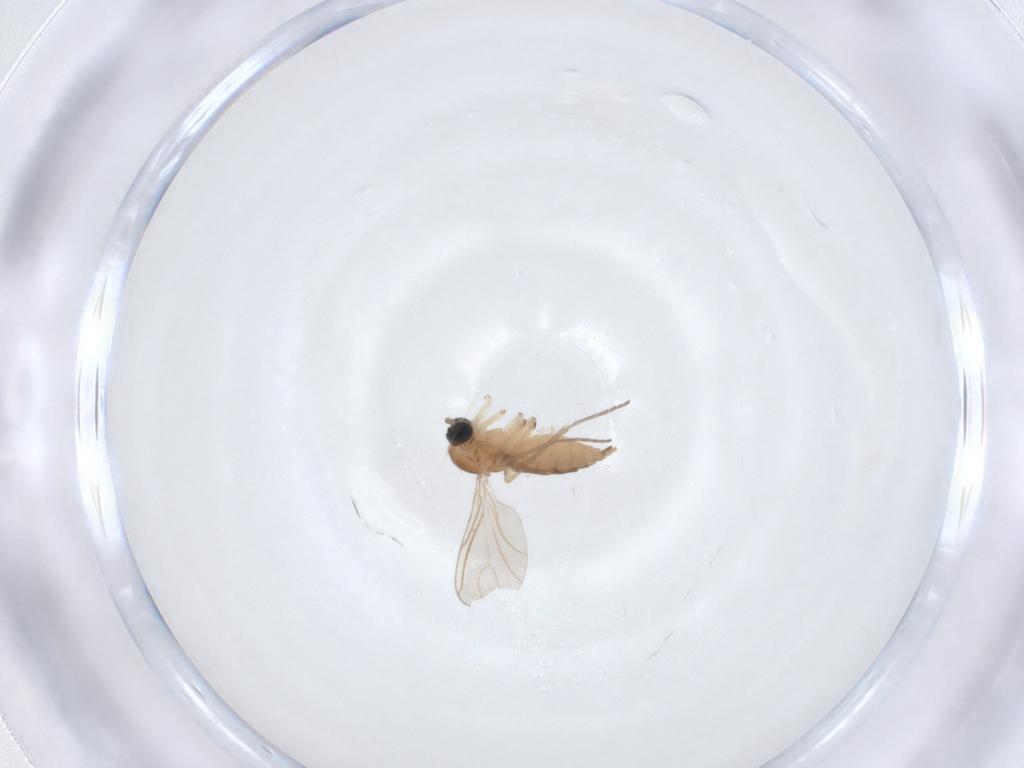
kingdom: Animalia
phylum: Arthropoda
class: Insecta
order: Diptera
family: Sciaridae
